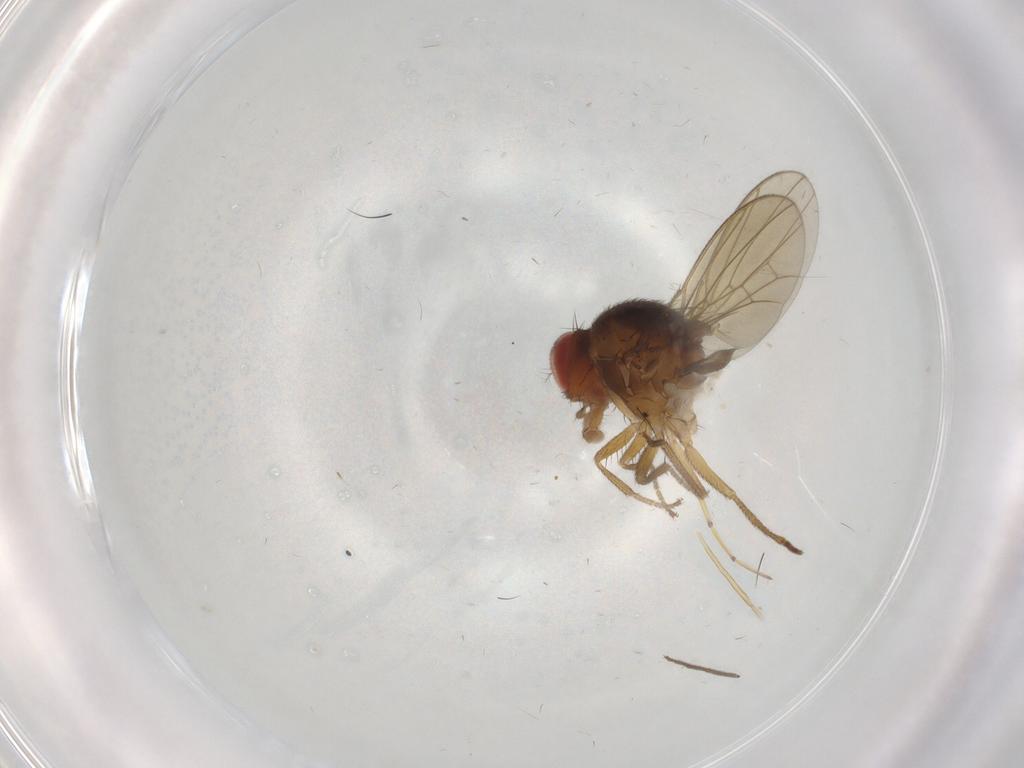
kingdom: Animalia
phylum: Arthropoda
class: Insecta
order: Diptera
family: Drosophilidae
